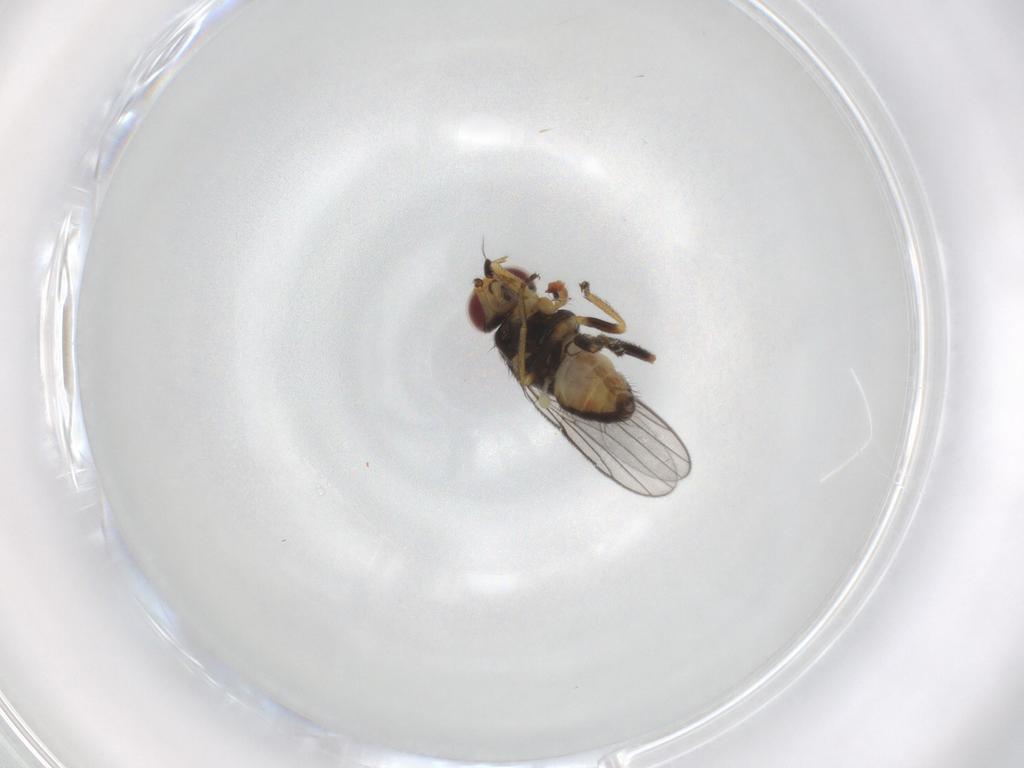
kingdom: Animalia
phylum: Arthropoda
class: Insecta
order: Diptera
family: Chloropidae
